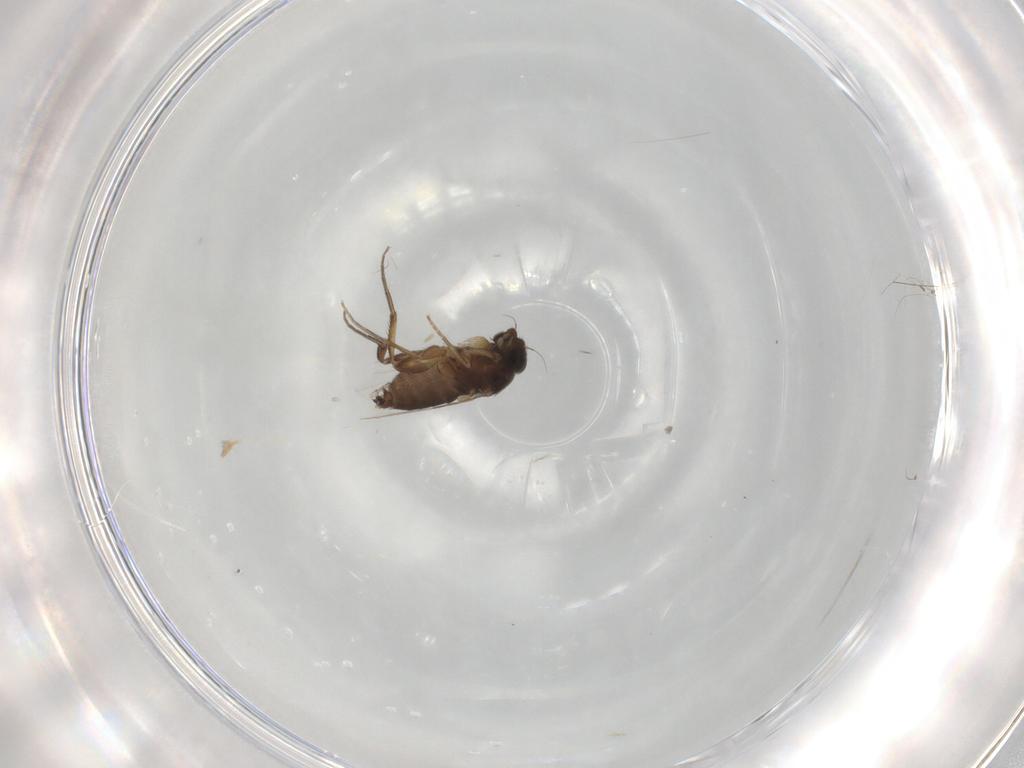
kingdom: Animalia
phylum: Arthropoda
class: Insecta
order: Diptera
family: Phoridae
